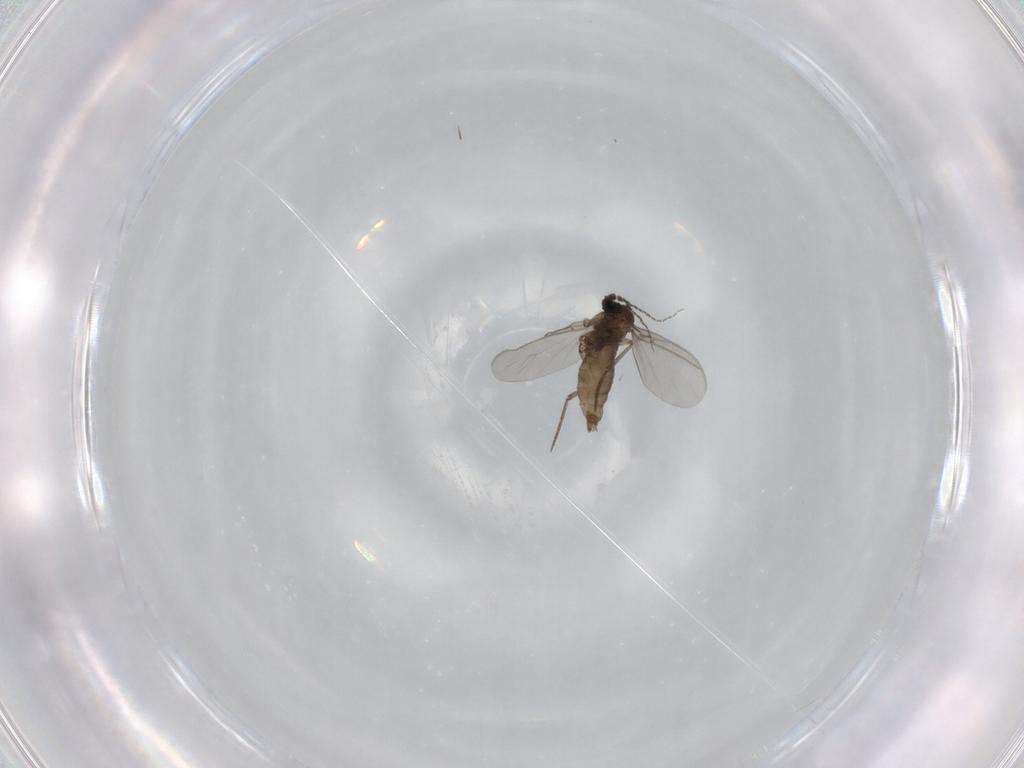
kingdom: Animalia
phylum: Arthropoda
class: Insecta
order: Diptera
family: Sciaridae
